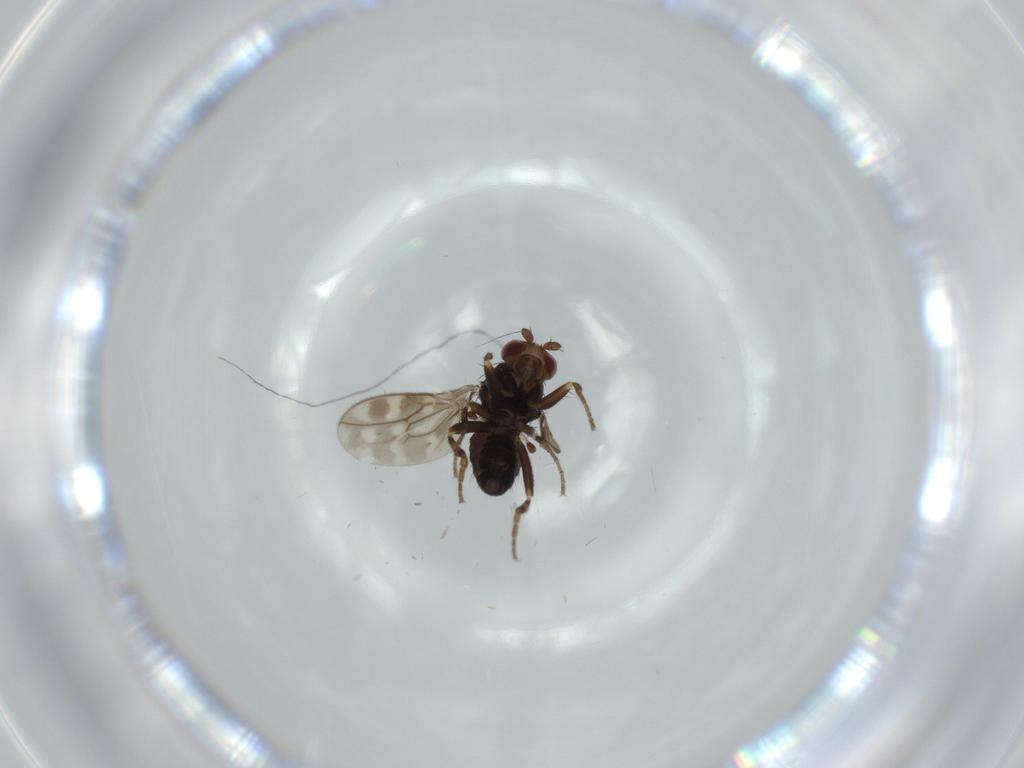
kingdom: Animalia
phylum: Arthropoda
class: Insecta
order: Diptera
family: Sphaeroceridae
